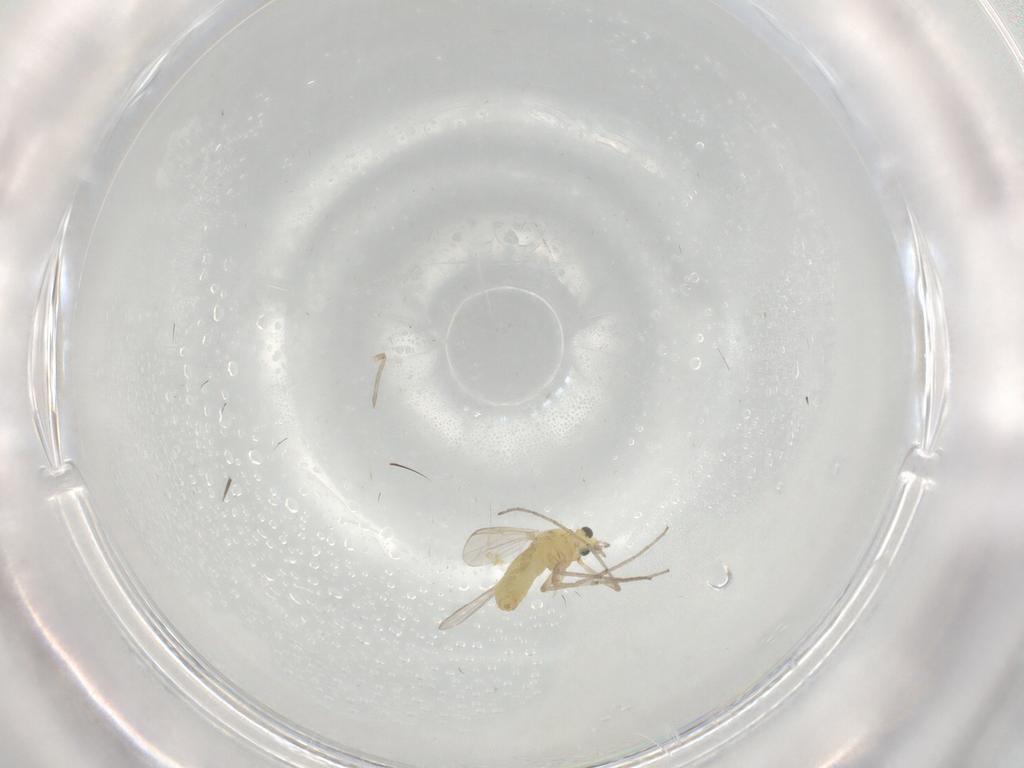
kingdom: Animalia
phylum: Arthropoda
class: Insecta
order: Diptera
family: Chironomidae
